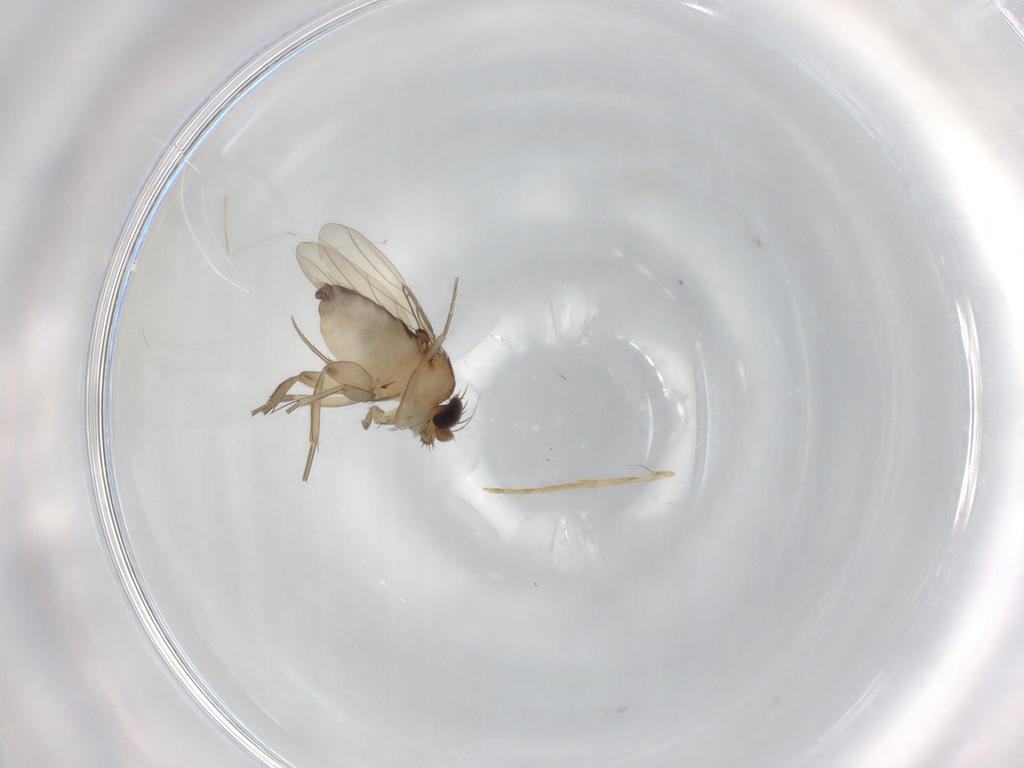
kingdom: Animalia
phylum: Arthropoda
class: Insecta
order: Diptera
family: Phoridae
